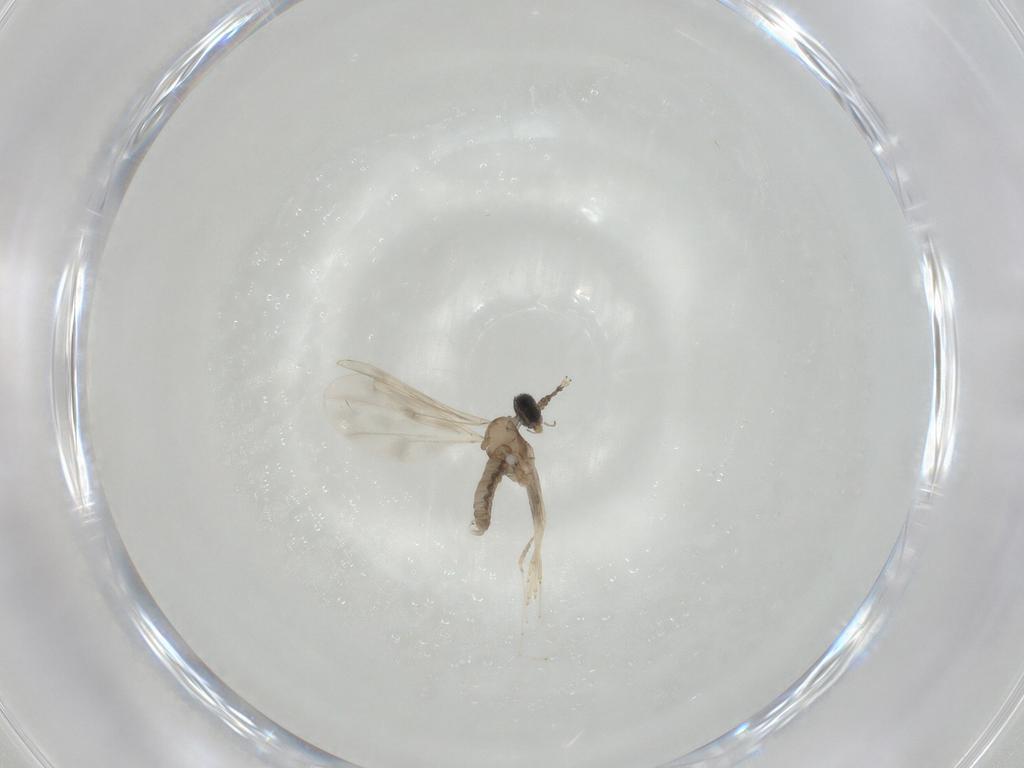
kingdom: Animalia
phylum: Arthropoda
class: Insecta
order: Diptera
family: Cecidomyiidae
